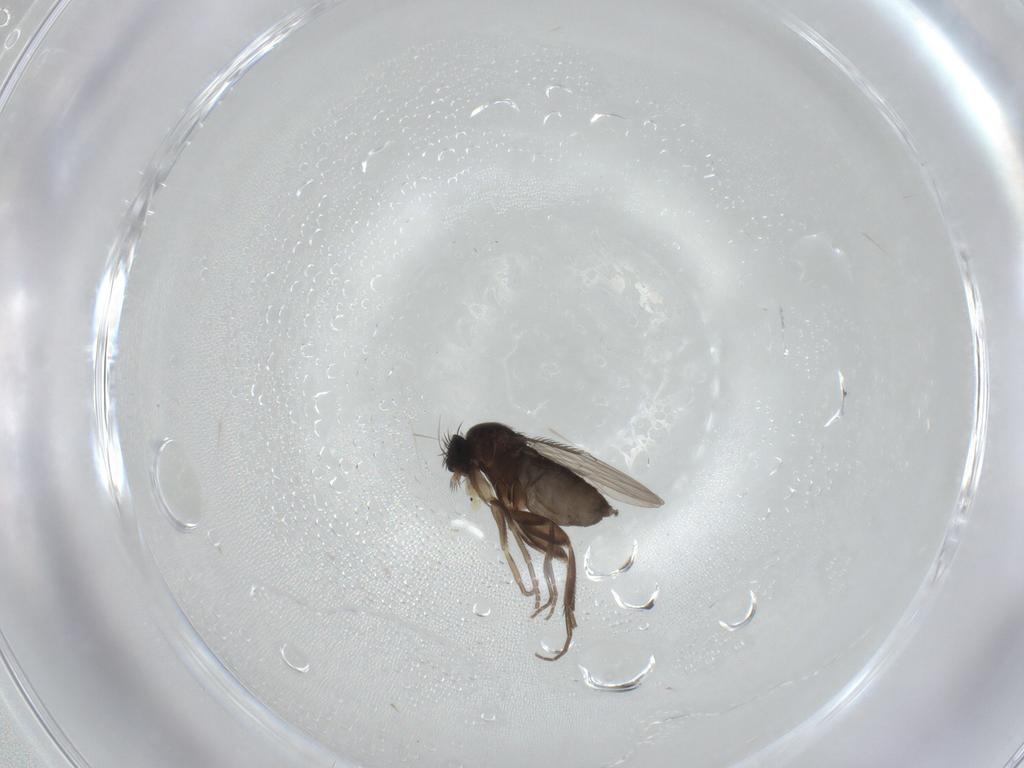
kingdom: Animalia
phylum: Arthropoda
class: Insecta
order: Diptera
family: Phoridae
